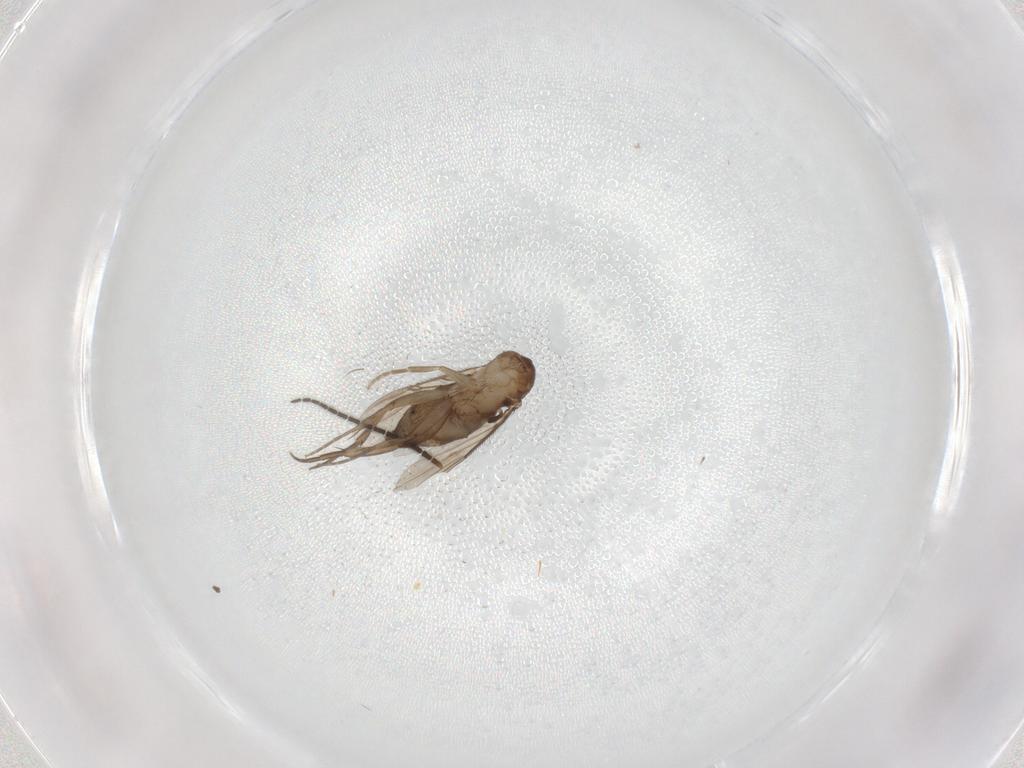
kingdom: Animalia
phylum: Arthropoda
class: Insecta
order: Diptera
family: Phoridae
